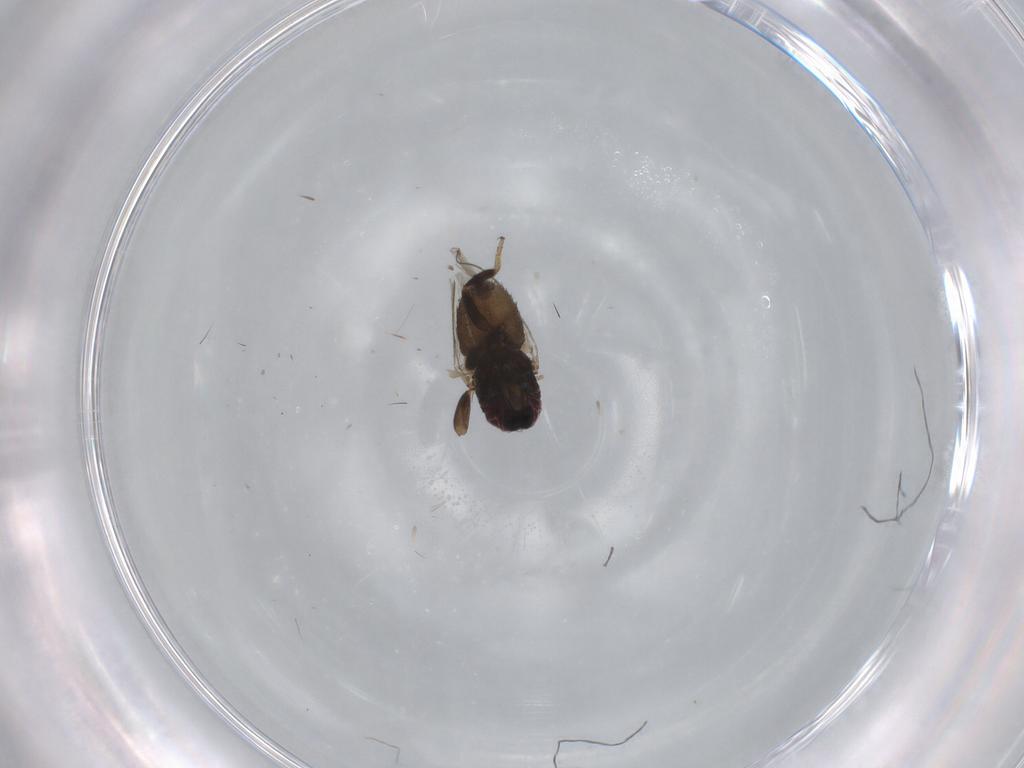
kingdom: Animalia
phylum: Arthropoda
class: Insecta
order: Diptera
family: Milichiidae
